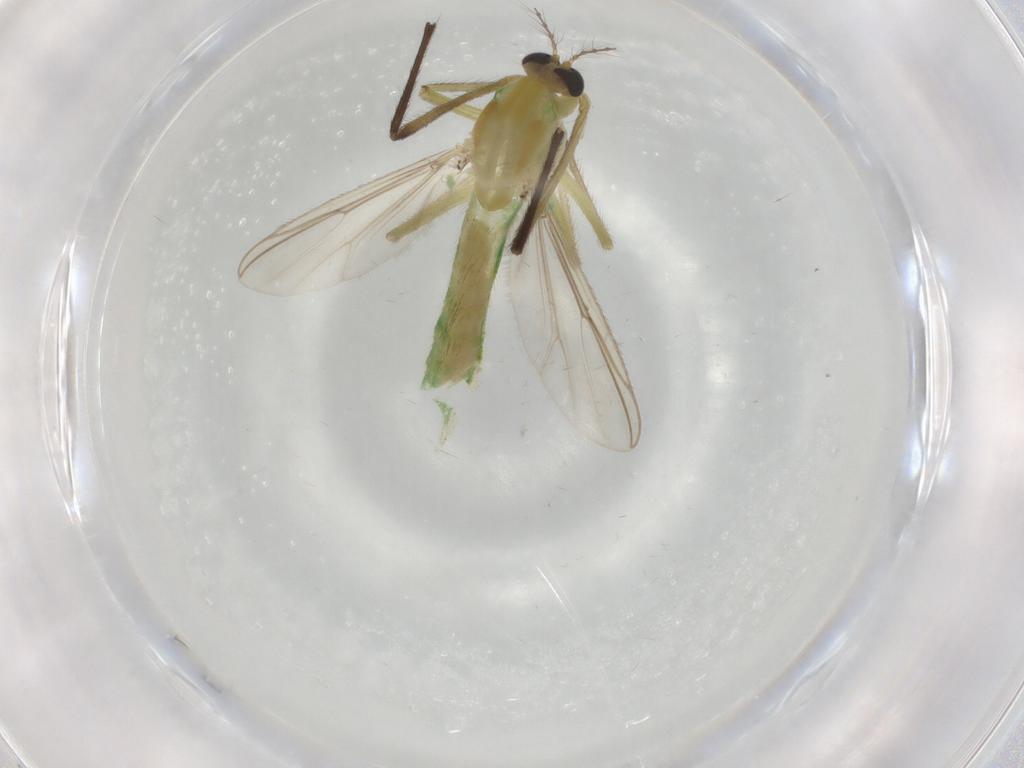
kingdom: Animalia
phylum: Arthropoda
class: Insecta
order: Diptera
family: Chironomidae
